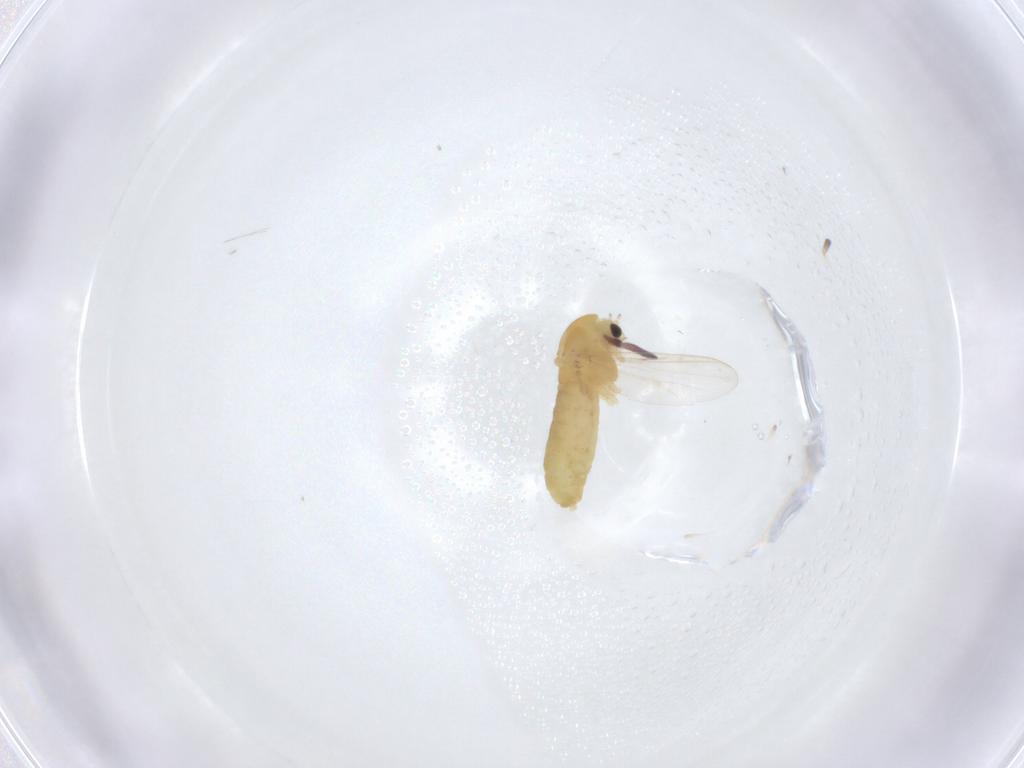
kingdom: Animalia
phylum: Arthropoda
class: Insecta
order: Diptera
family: Chironomidae
